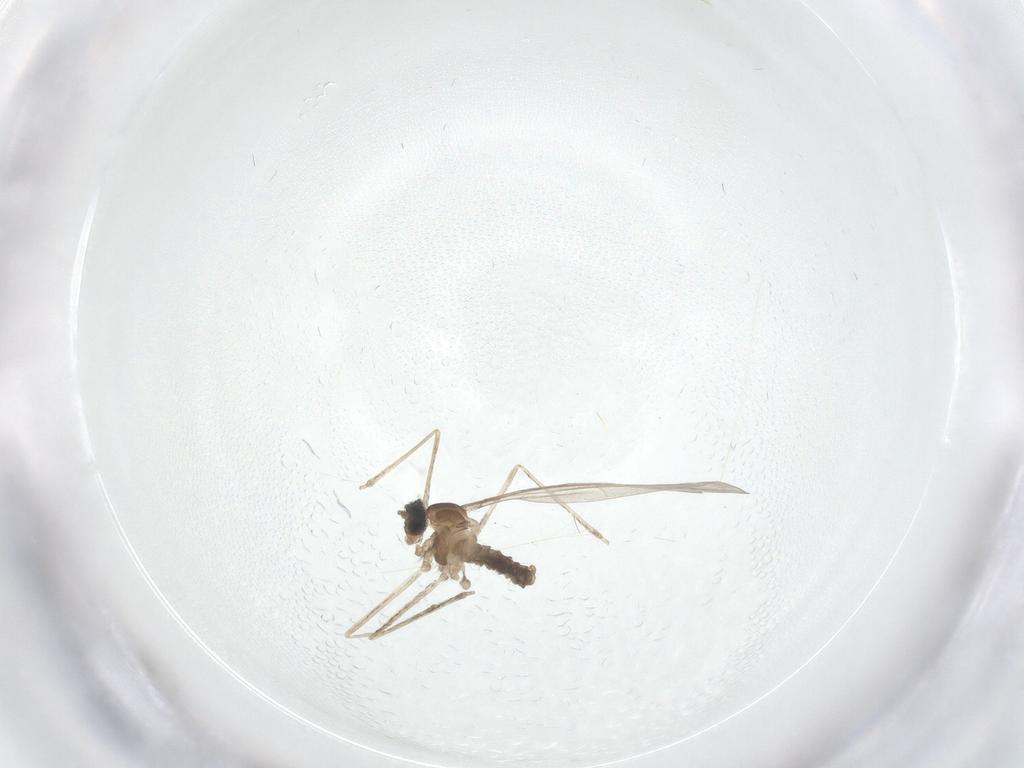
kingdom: Animalia
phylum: Arthropoda
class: Insecta
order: Diptera
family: Cecidomyiidae
